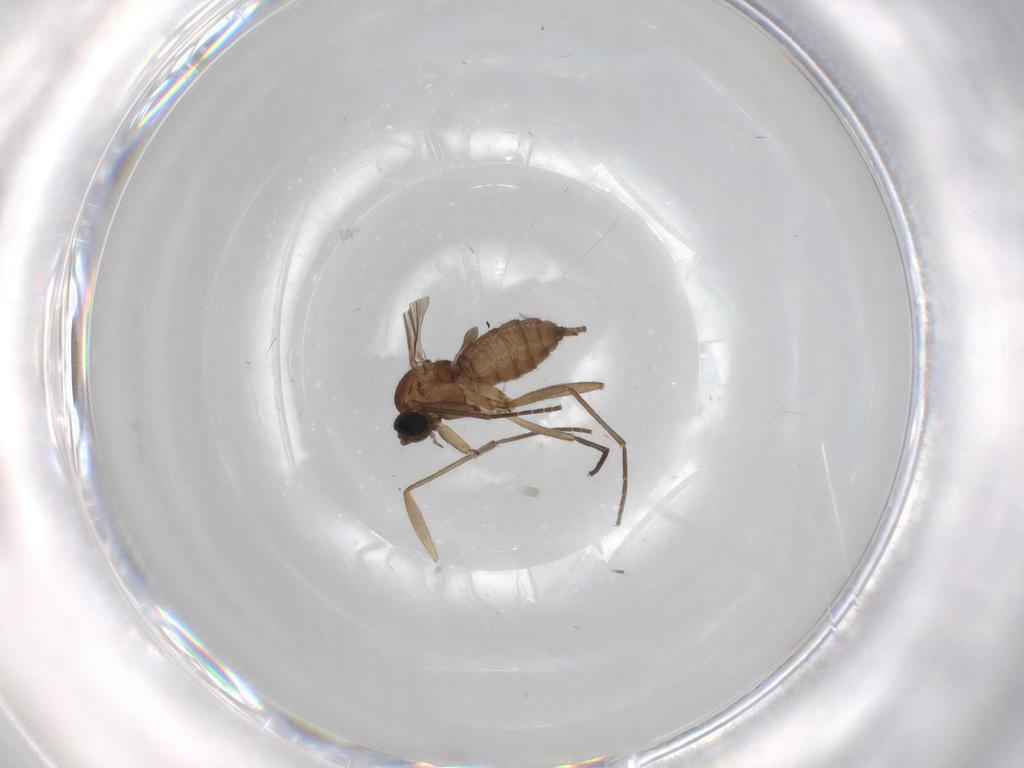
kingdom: Animalia
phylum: Arthropoda
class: Insecta
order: Diptera
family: Sciaridae
